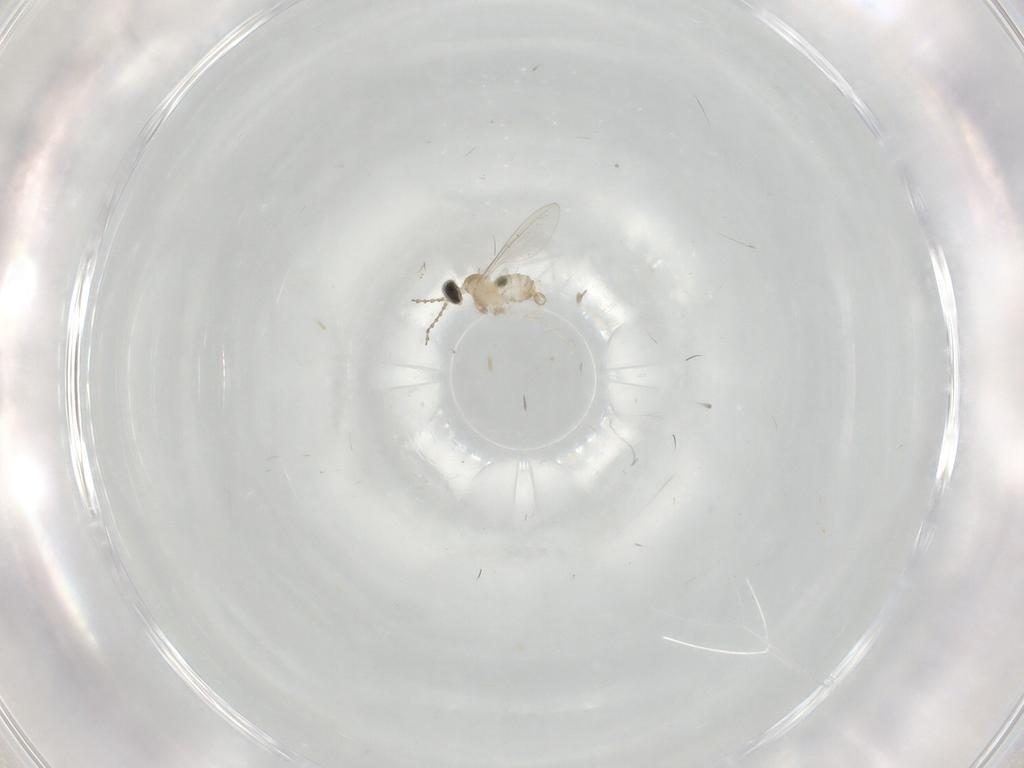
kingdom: Animalia
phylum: Arthropoda
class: Insecta
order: Diptera
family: Cecidomyiidae
